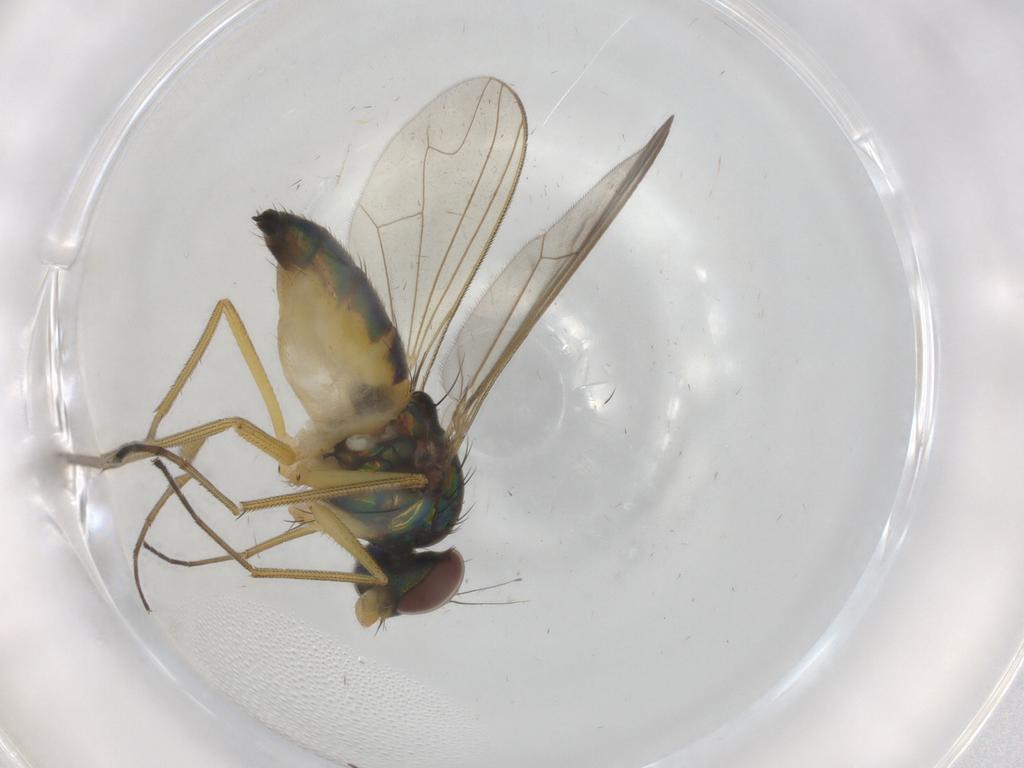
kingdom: Animalia
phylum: Arthropoda
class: Insecta
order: Diptera
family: Dolichopodidae
